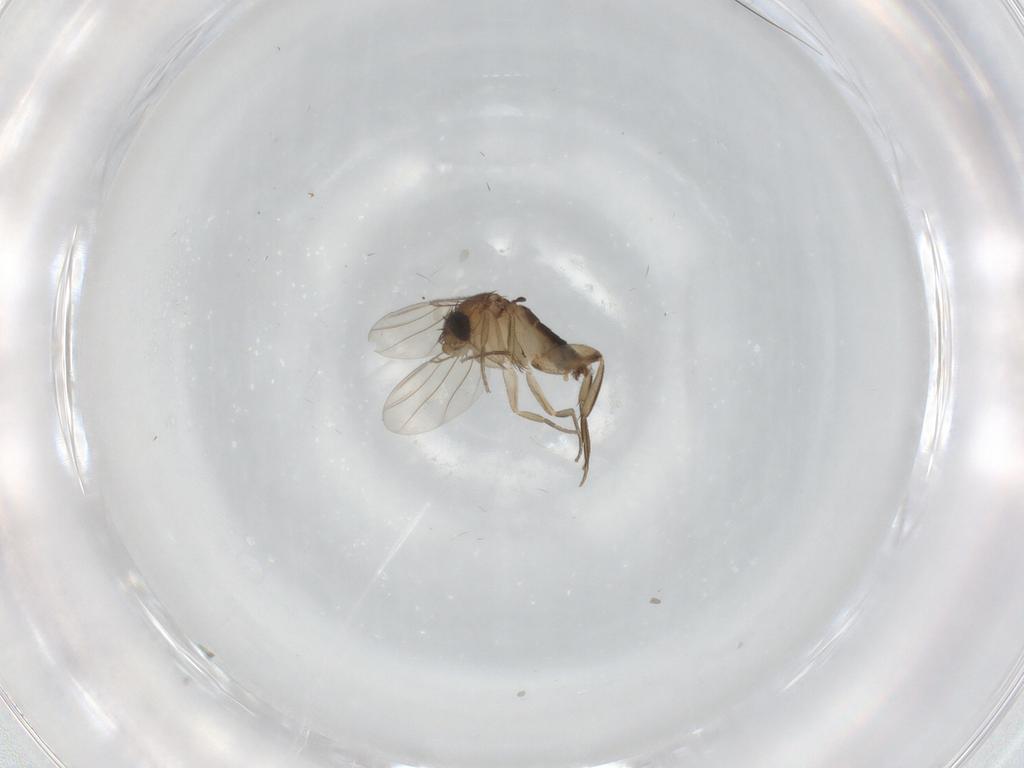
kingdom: Animalia
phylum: Arthropoda
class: Insecta
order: Diptera
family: Phoridae
